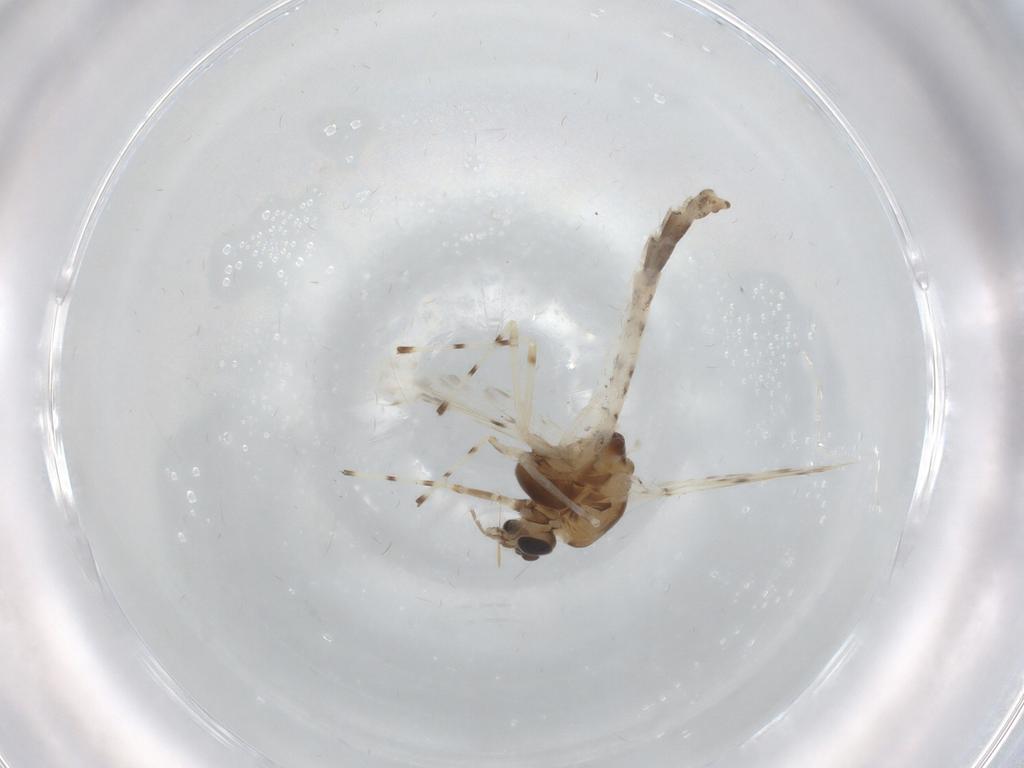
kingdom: Animalia
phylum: Arthropoda
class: Insecta
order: Diptera
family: Chironomidae
